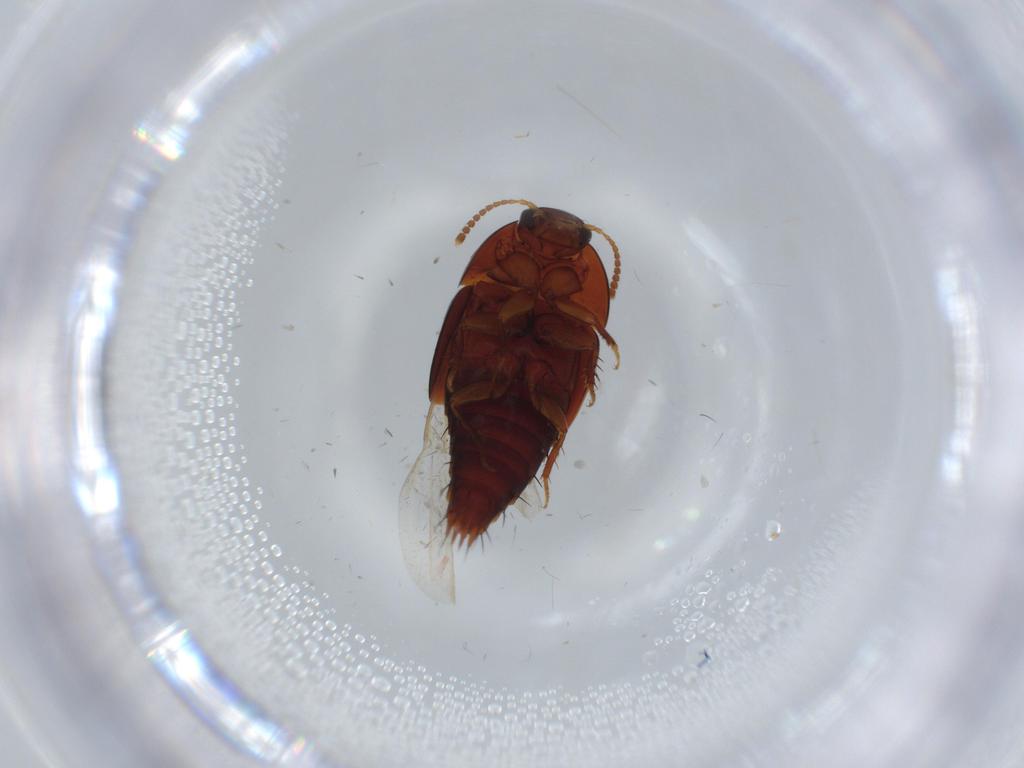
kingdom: Animalia
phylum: Arthropoda
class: Insecta
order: Coleoptera
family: Staphylinidae
